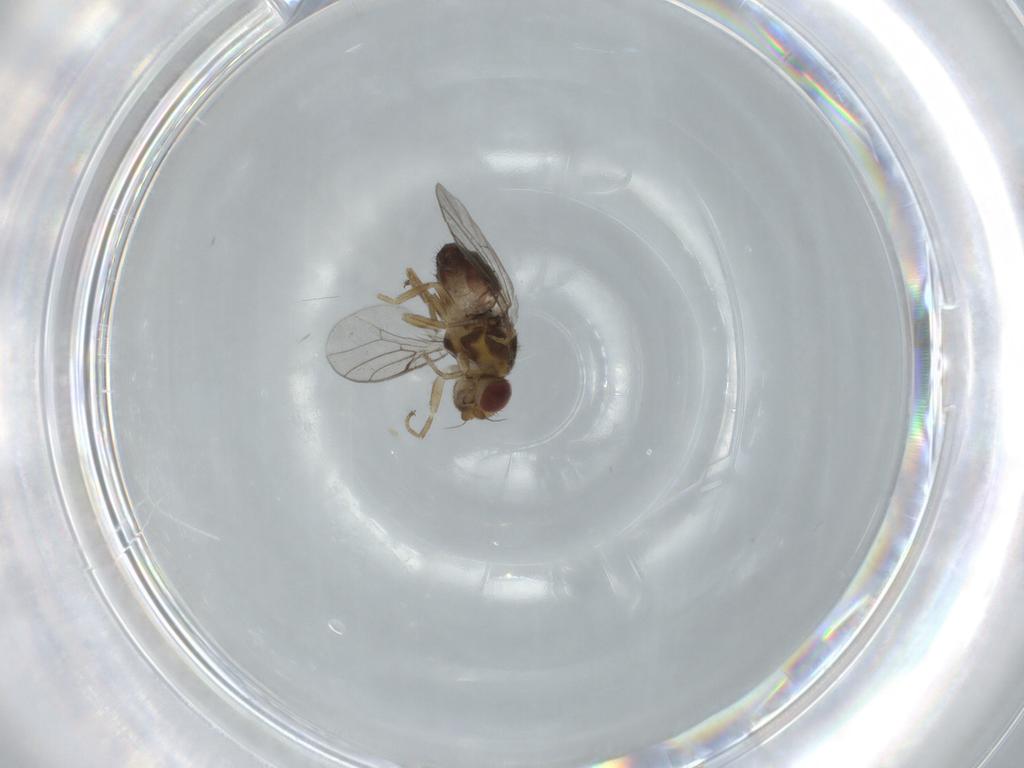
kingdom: Animalia
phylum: Arthropoda
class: Insecta
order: Diptera
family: Chloropidae
